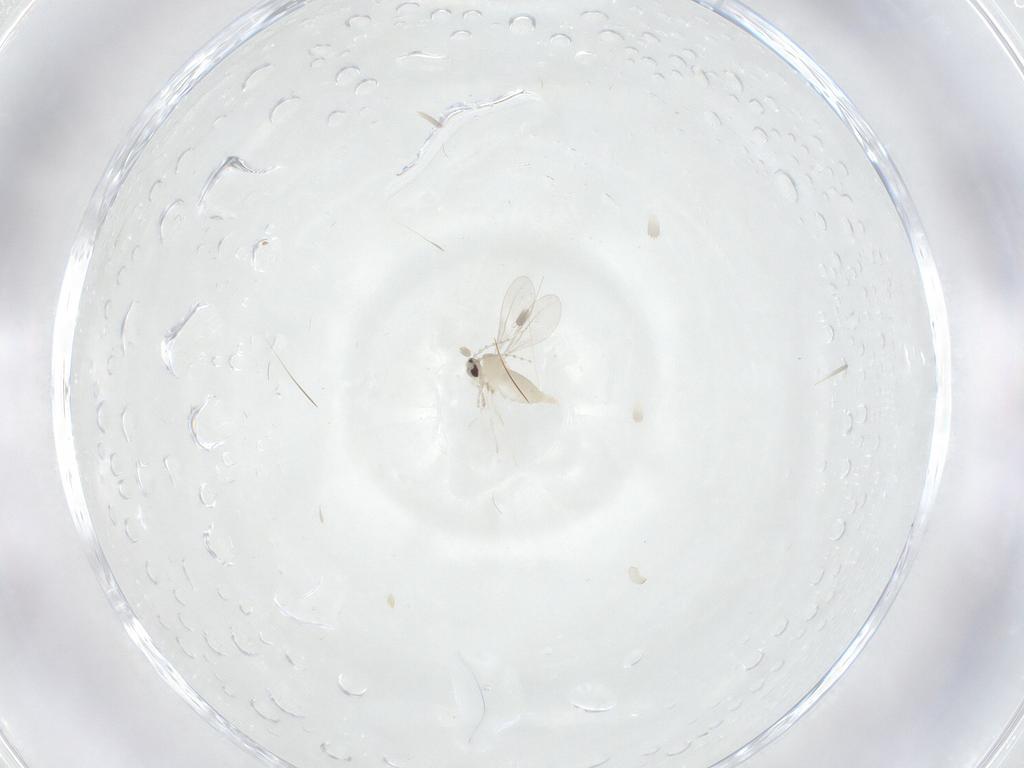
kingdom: Animalia
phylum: Arthropoda
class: Insecta
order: Diptera
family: Cecidomyiidae
